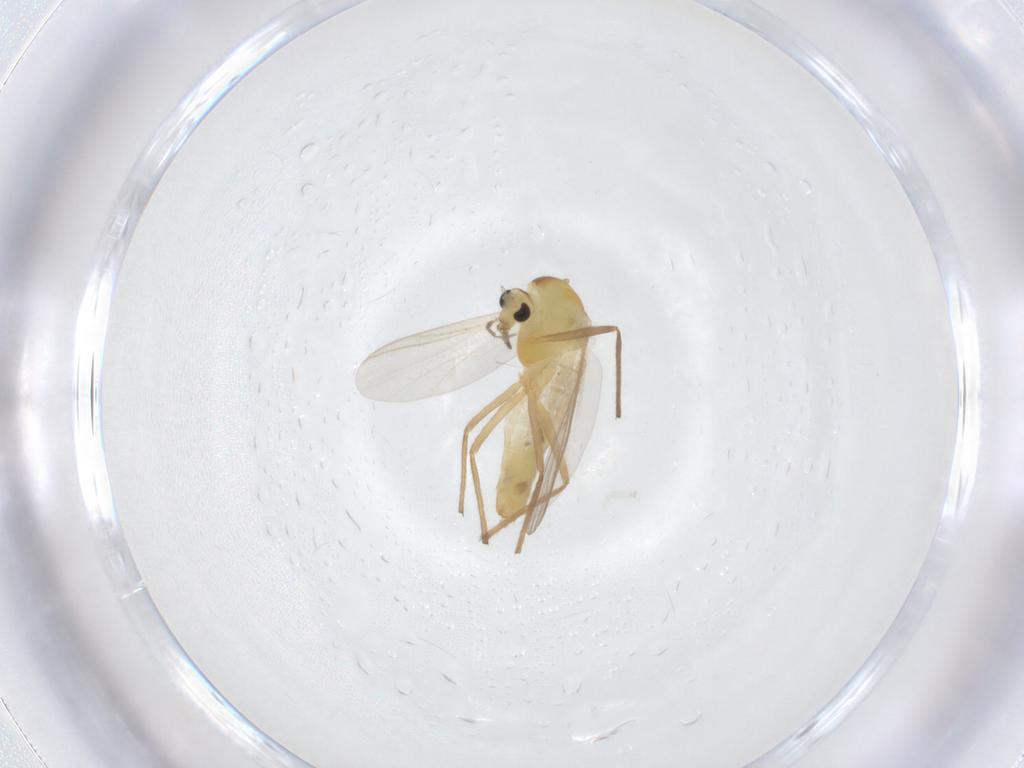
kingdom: Animalia
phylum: Arthropoda
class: Insecta
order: Diptera
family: Chironomidae
